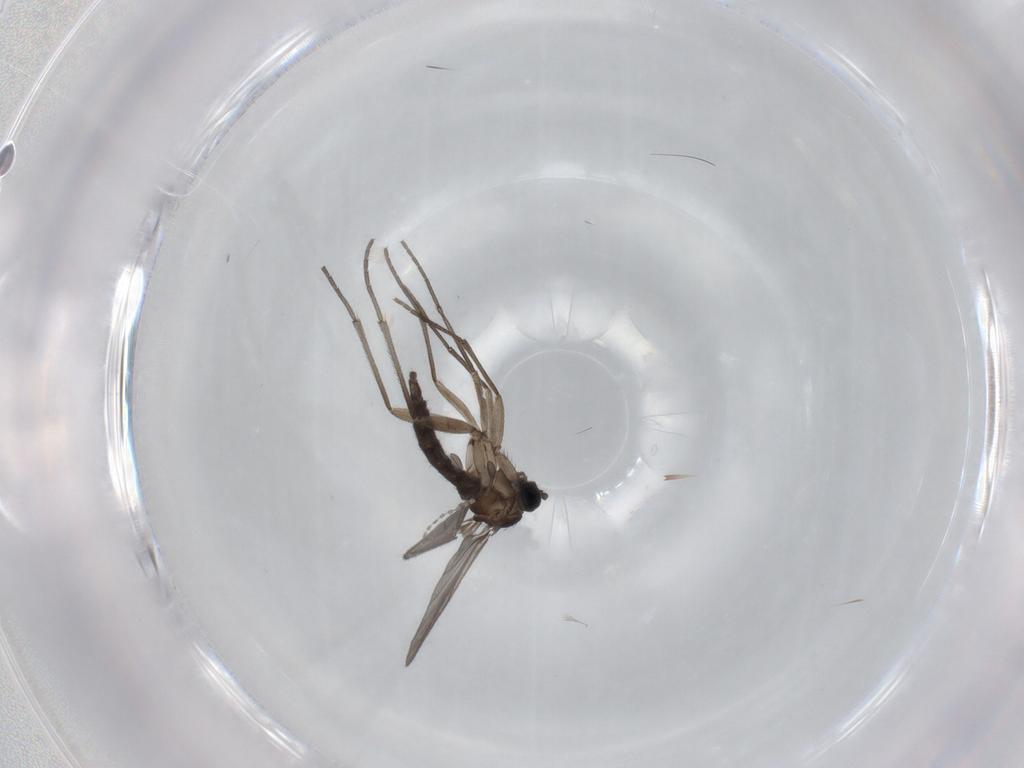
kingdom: Animalia
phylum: Arthropoda
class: Insecta
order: Diptera
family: Sciaridae
